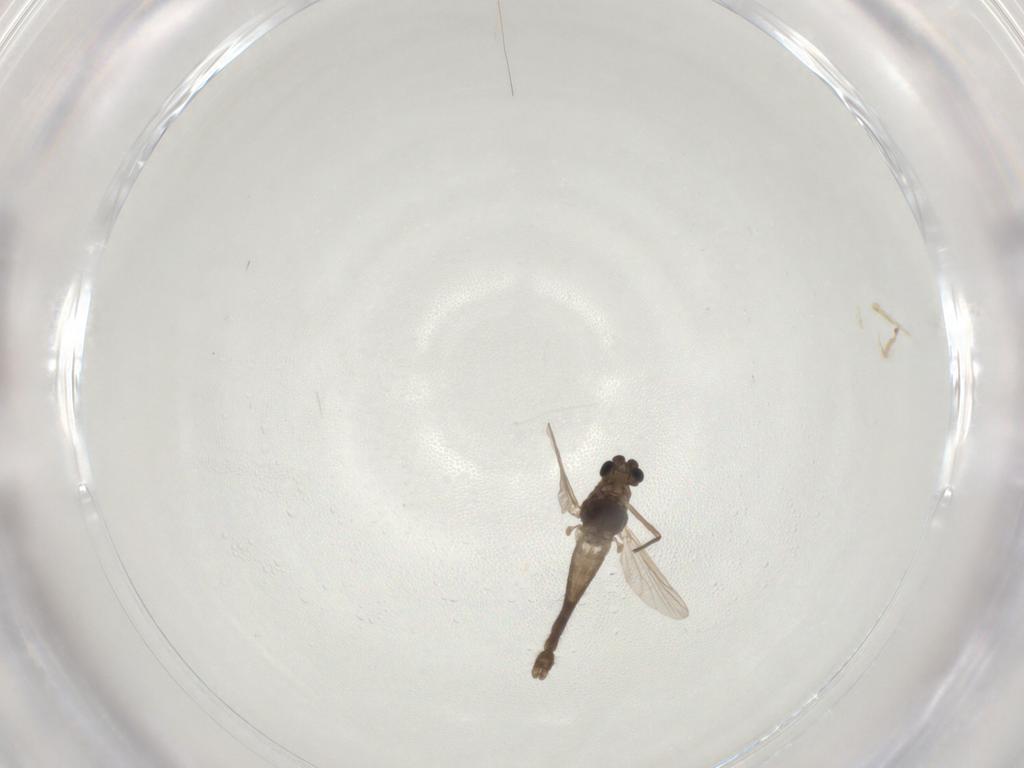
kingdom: Animalia
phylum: Arthropoda
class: Insecta
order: Diptera
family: Chironomidae
